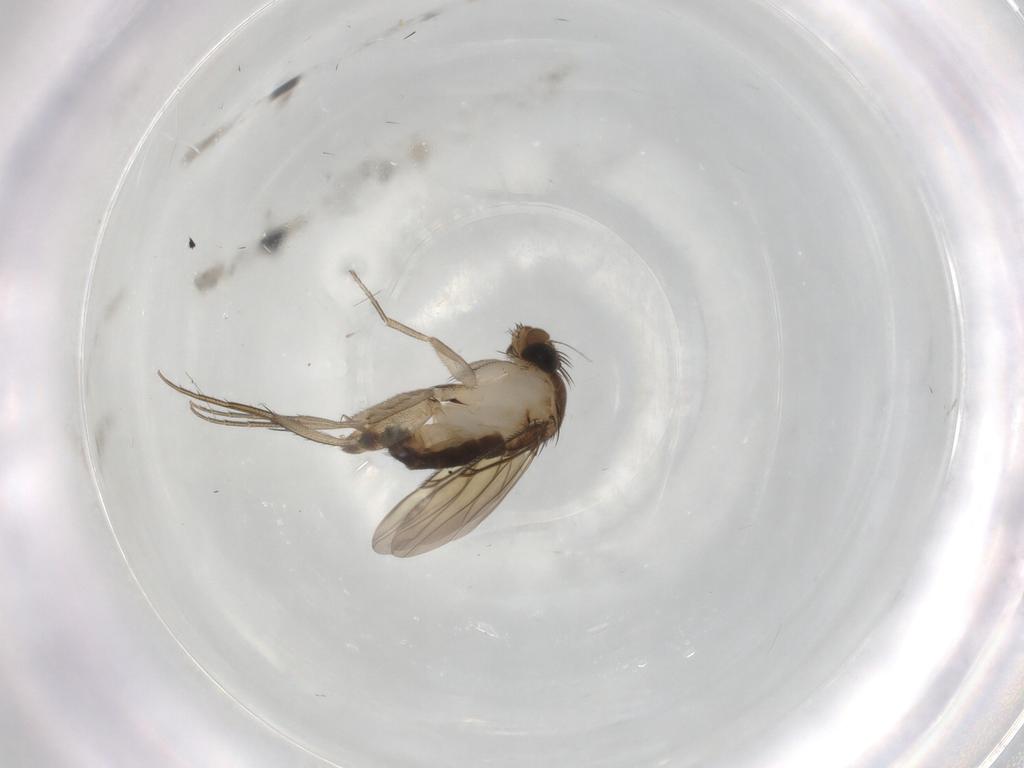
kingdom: Animalia
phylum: Arthropoda
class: Insecta
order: Diptera
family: Phoridae
